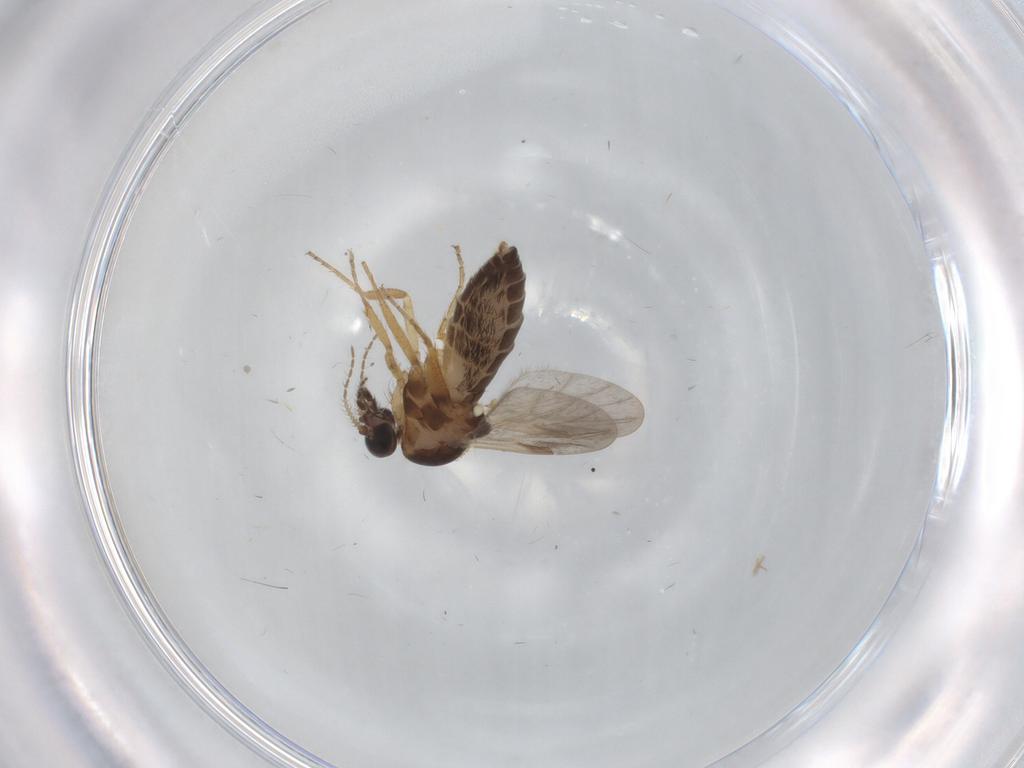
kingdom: Animalia
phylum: Arthropoda
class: Insecta
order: Diptera
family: Ceratopogonidae
